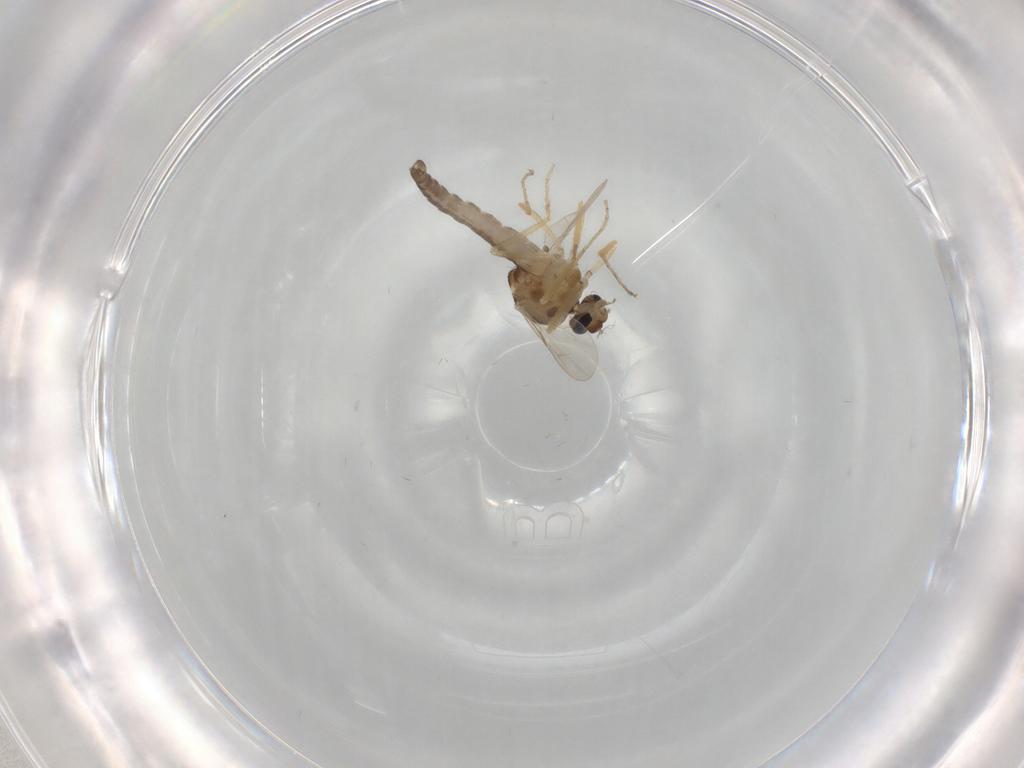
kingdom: Animalia
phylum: Arthropoda
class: Insecta
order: Diptera
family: Ceratopogonidae
